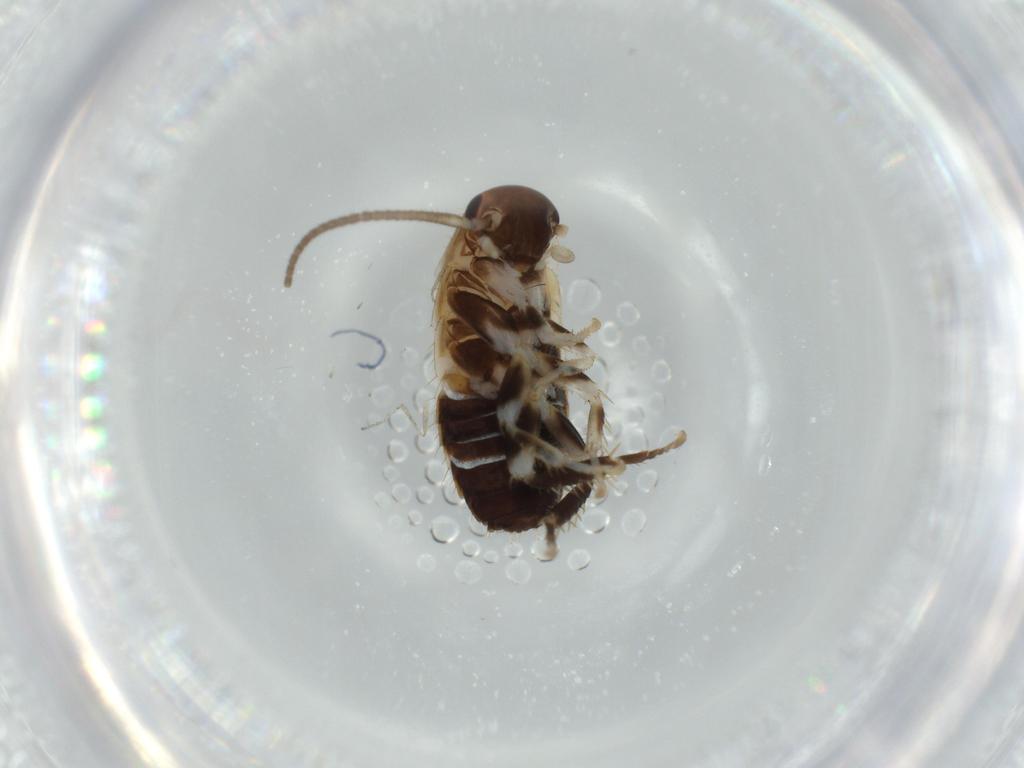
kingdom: Animalia
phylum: Arthropoda
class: Insecta
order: Blattodea
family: Ectobiidae
